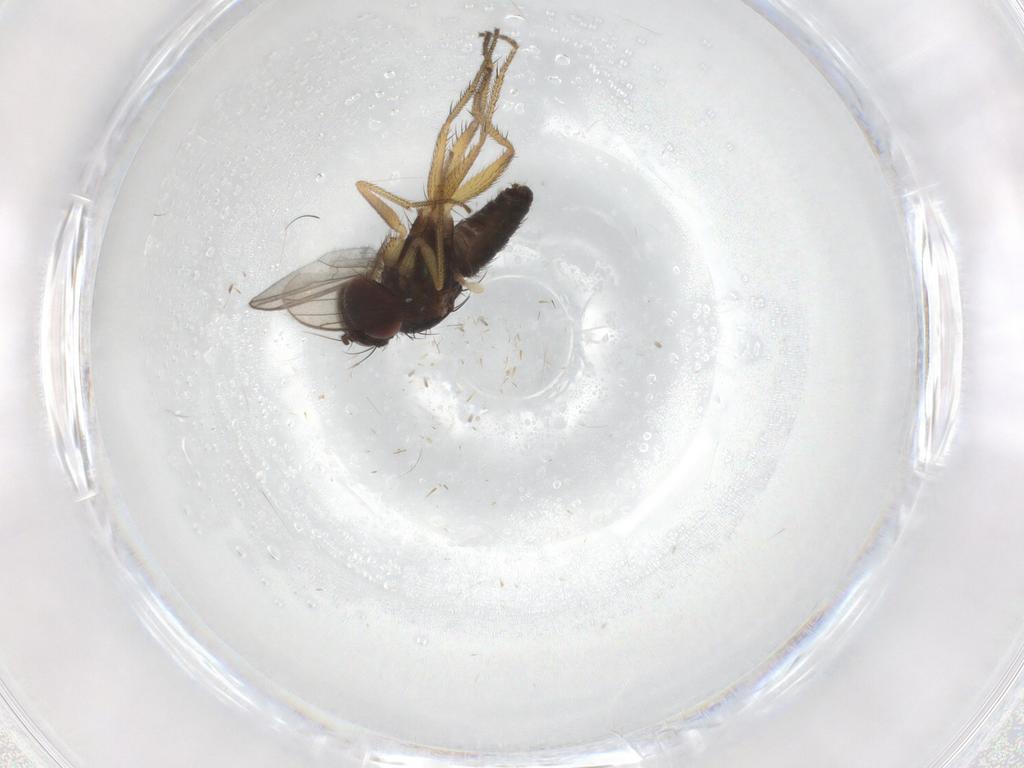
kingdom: Animalia
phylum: Arthropoda
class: Insecta
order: Diptera
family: Dolichopodidae
